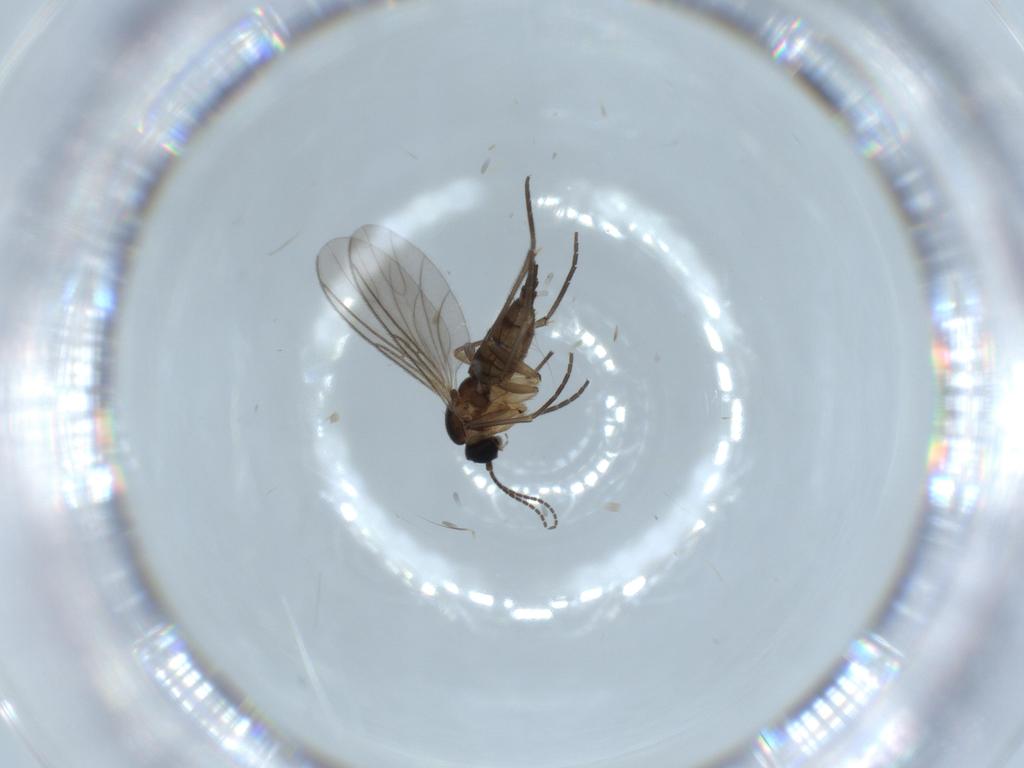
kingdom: Animalia
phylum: Arthropoda
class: Insecta
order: Diptera
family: Sciaridae
